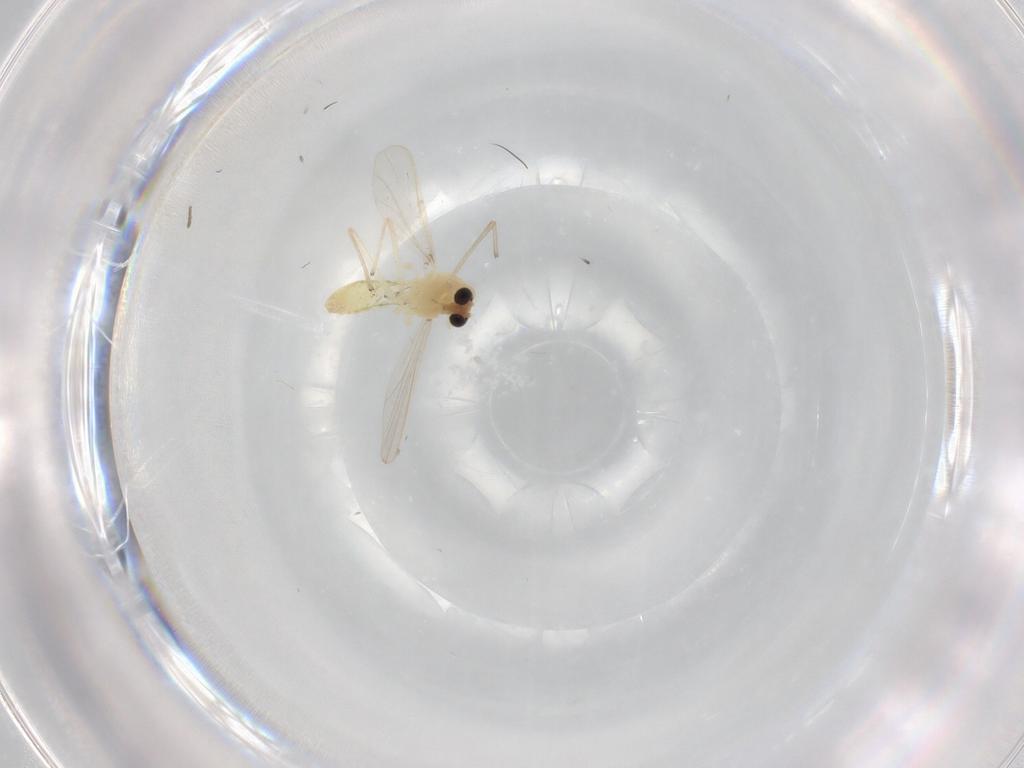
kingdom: Animalia
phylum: Arthropoda
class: Insecta
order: Diptera
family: Chironomidae
